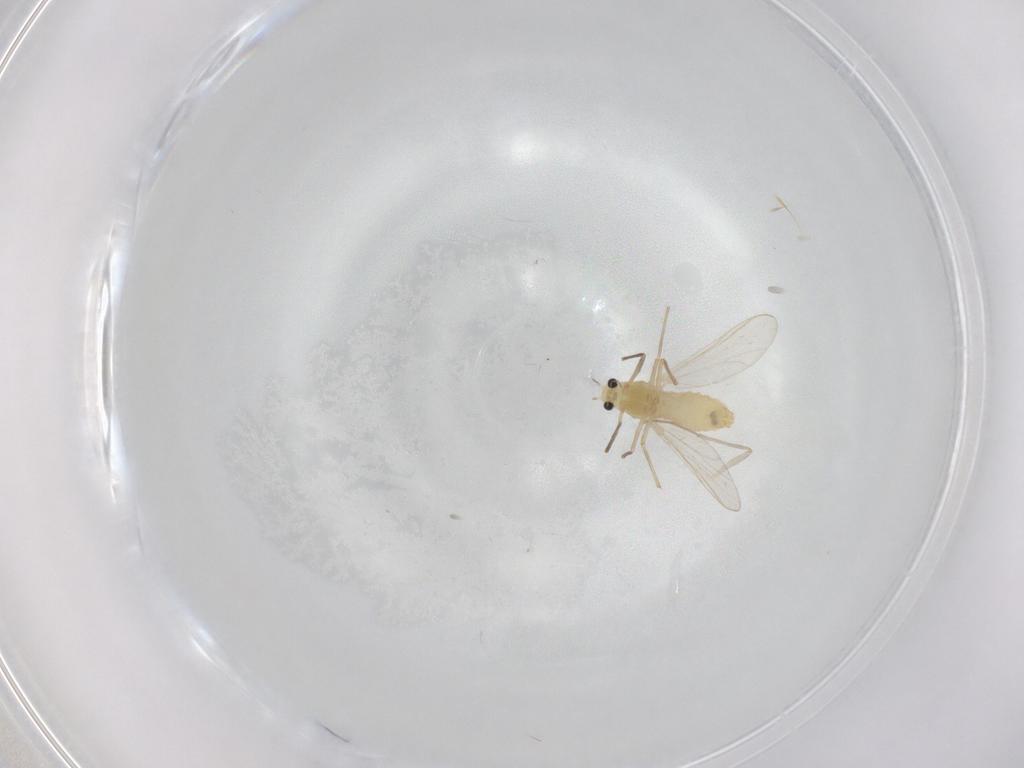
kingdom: Animalia
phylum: Arthropoda
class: Insecta
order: Diptera
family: Chironomidae
